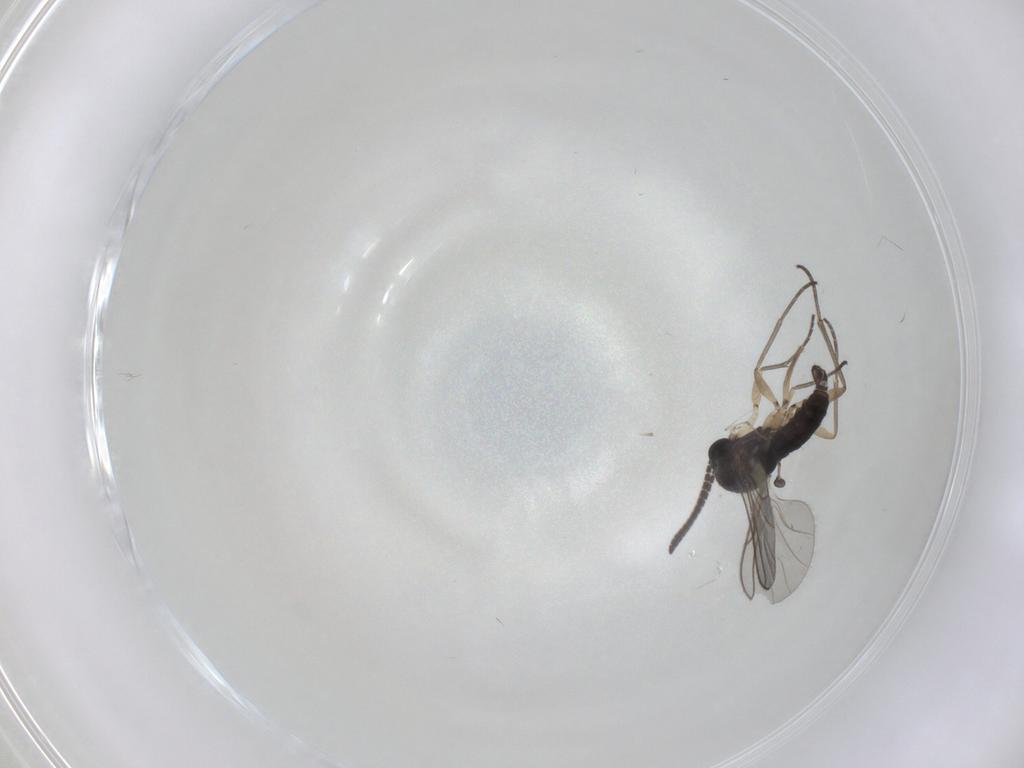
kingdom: Animalia
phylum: Arthropoda
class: Insecta
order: Diptera
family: Sciaridae
